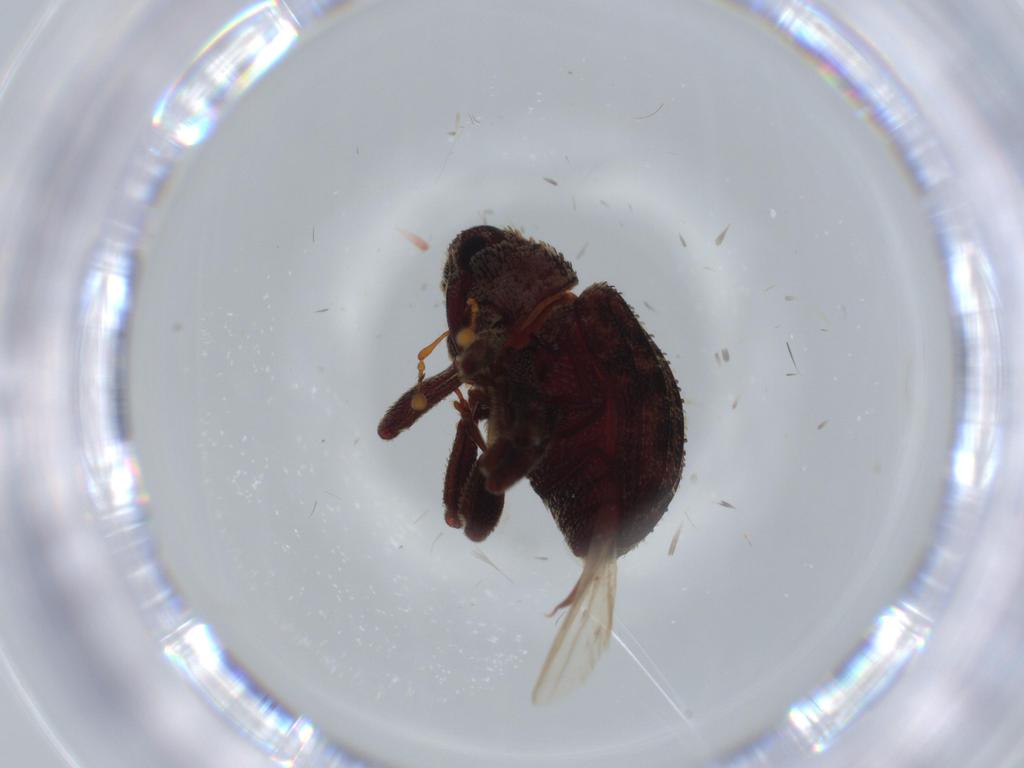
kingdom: Animalia
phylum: Arthropoda
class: Insecta
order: Coleoptera
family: Curculionidae
